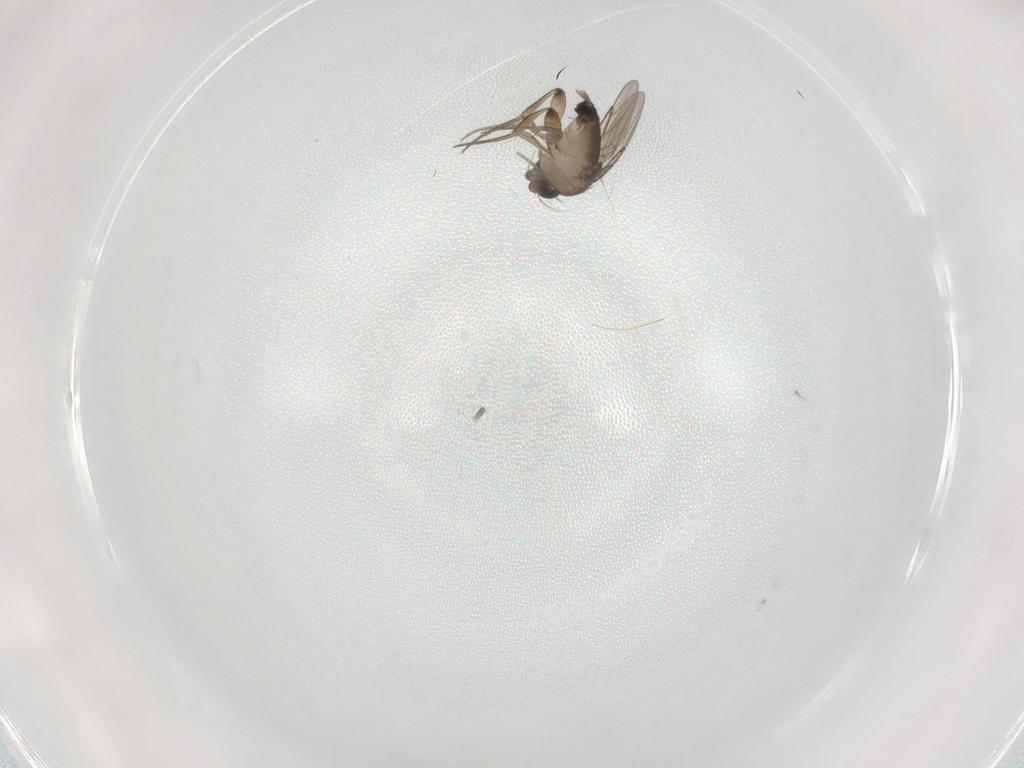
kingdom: Animalia
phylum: Arthropoda
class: Insecta
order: Diptera
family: Phoridae
